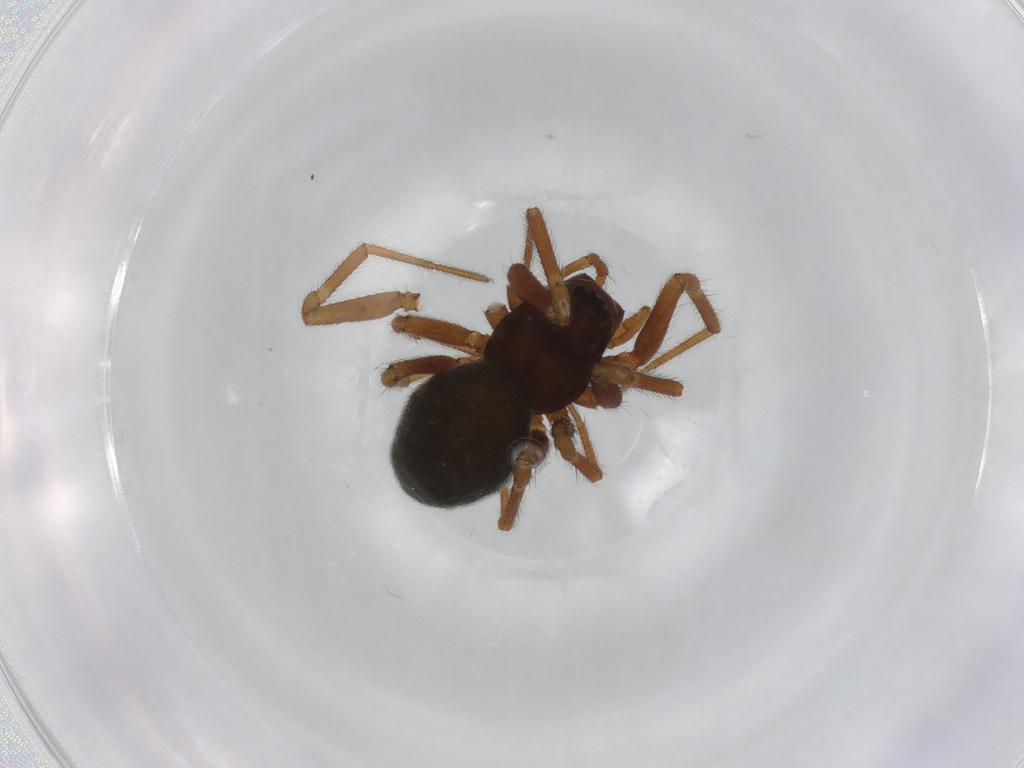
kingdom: Animalia
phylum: Arthropoda
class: Arachnida
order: Araneae
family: Linyphiidae
